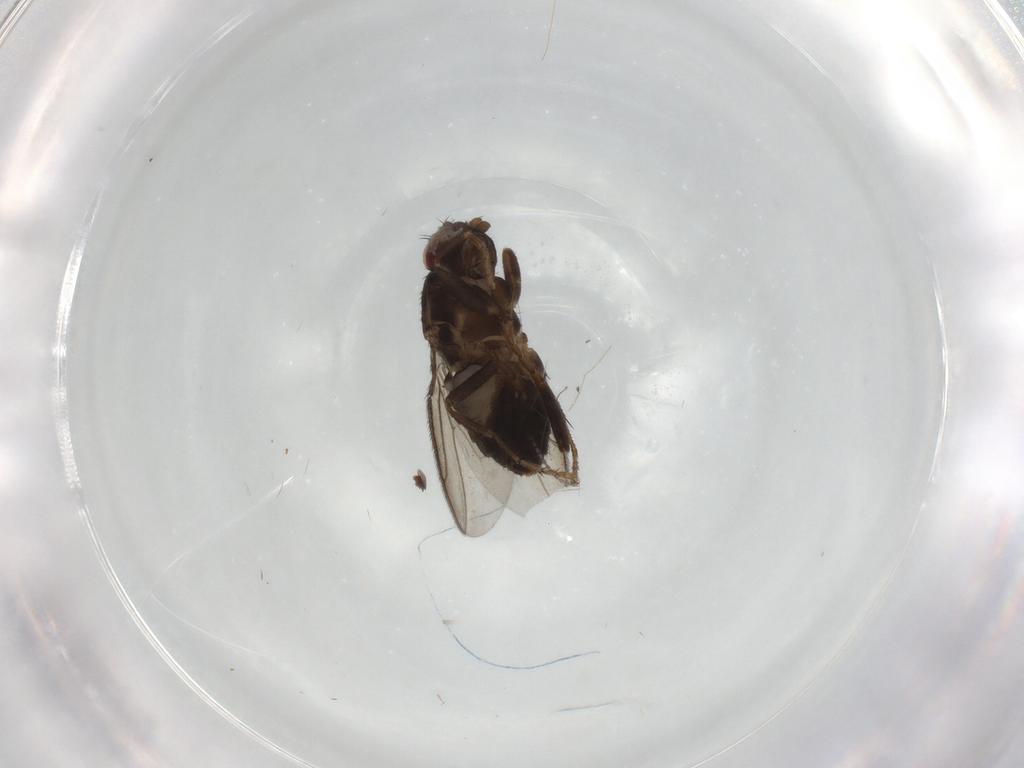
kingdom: Animalia
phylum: Arthropoda
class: Insecta
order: Diptera
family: Sphaeroceridae
